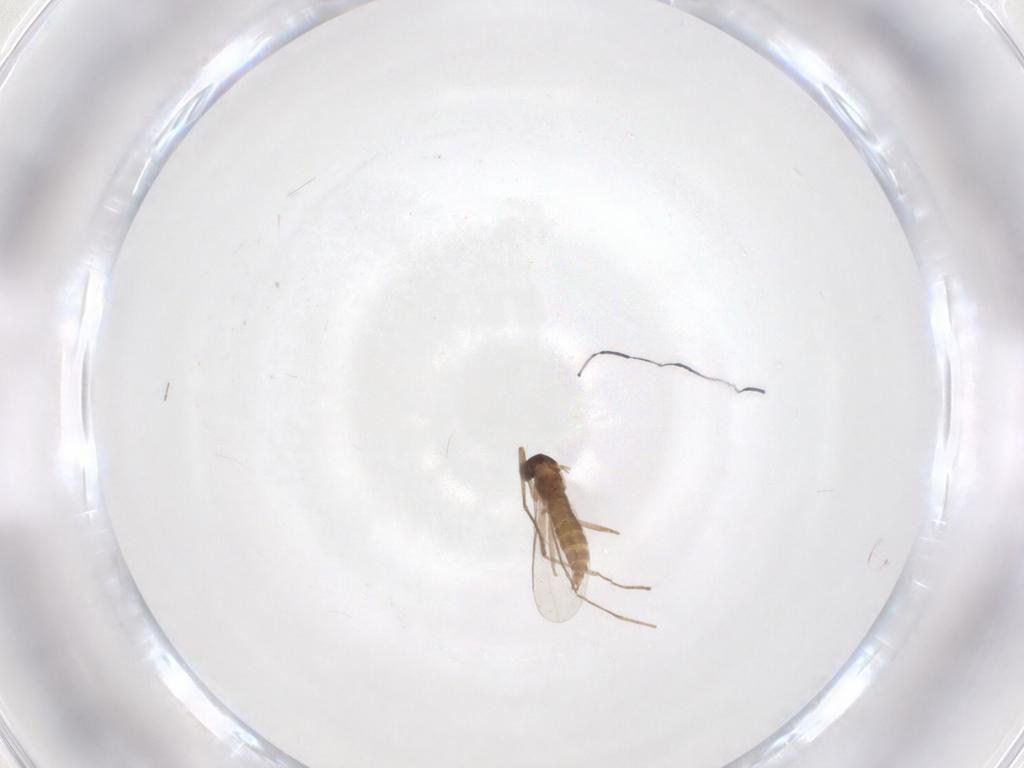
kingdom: Animalia
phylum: Arthropoda
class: Insecta
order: Diptera
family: Cecidomyiidae
